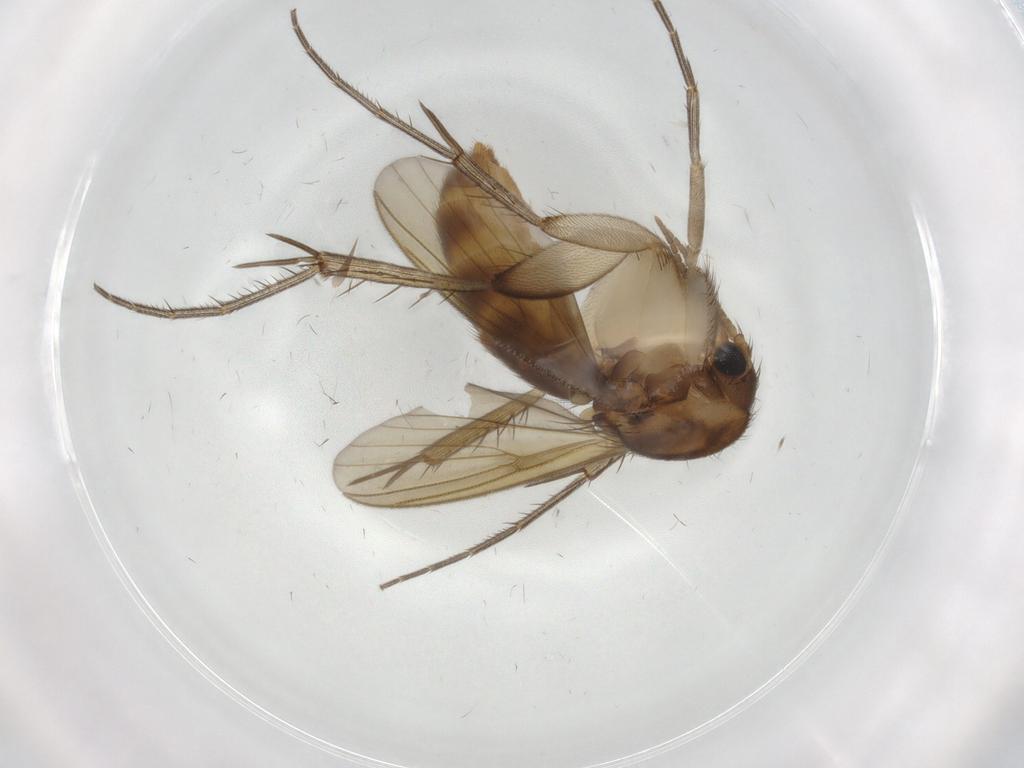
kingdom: Animalia
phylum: Arthropoda
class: Insecta
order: Diptera
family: Mycetophilidae
